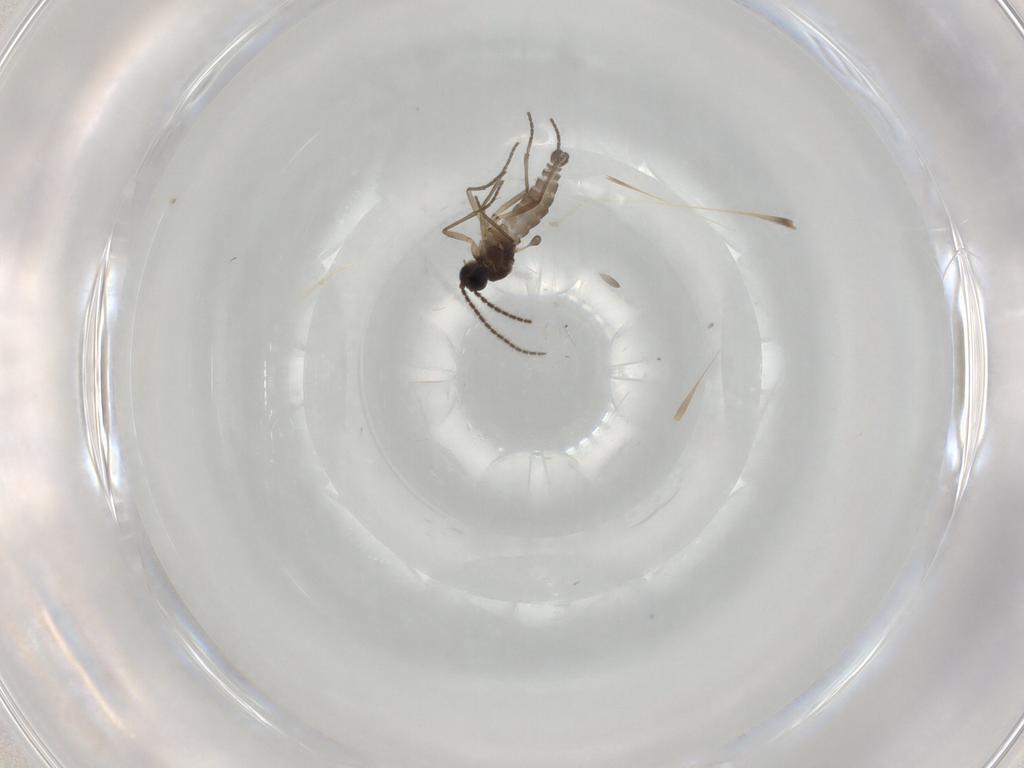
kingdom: Animalia
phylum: Arthropoda
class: Insecta
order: Diptera
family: Sciaridae
